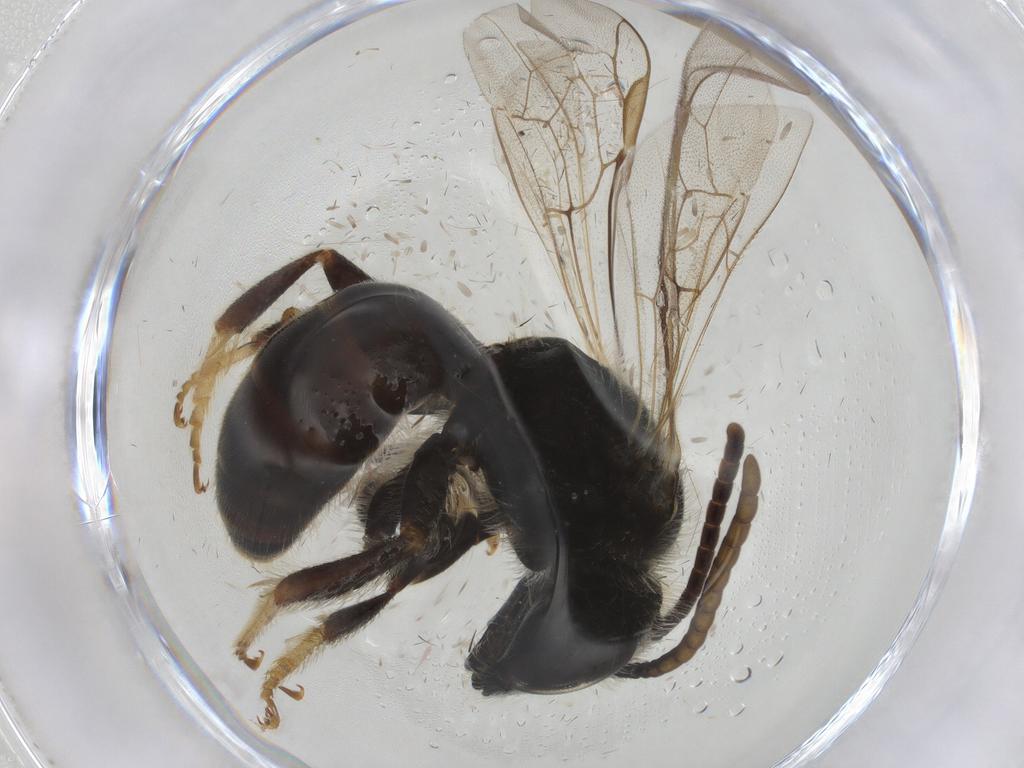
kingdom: Animalia
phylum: Arthropoda
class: Insecta
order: Hymenoptera
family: Halictidae
